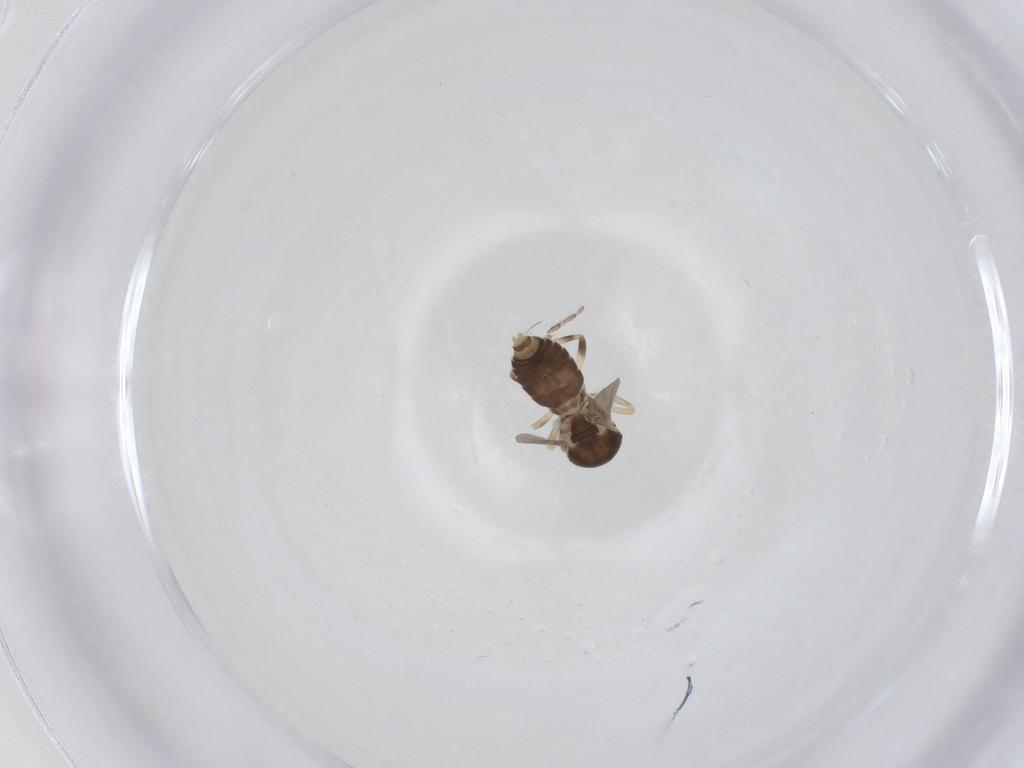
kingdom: Animalia
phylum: Arthropoda
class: Insecta
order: Diptera
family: Ceratopogonidae
